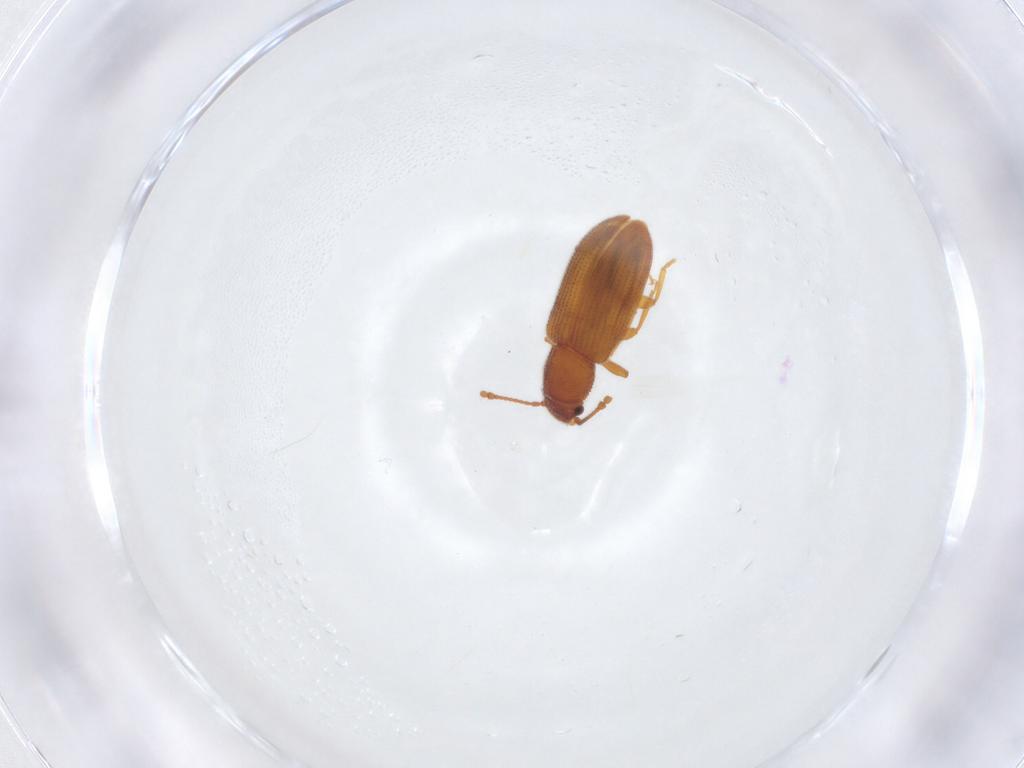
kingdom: Animalia
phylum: Arthropoda
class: Insecta
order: Coleoptera
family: Mycetophagidae
